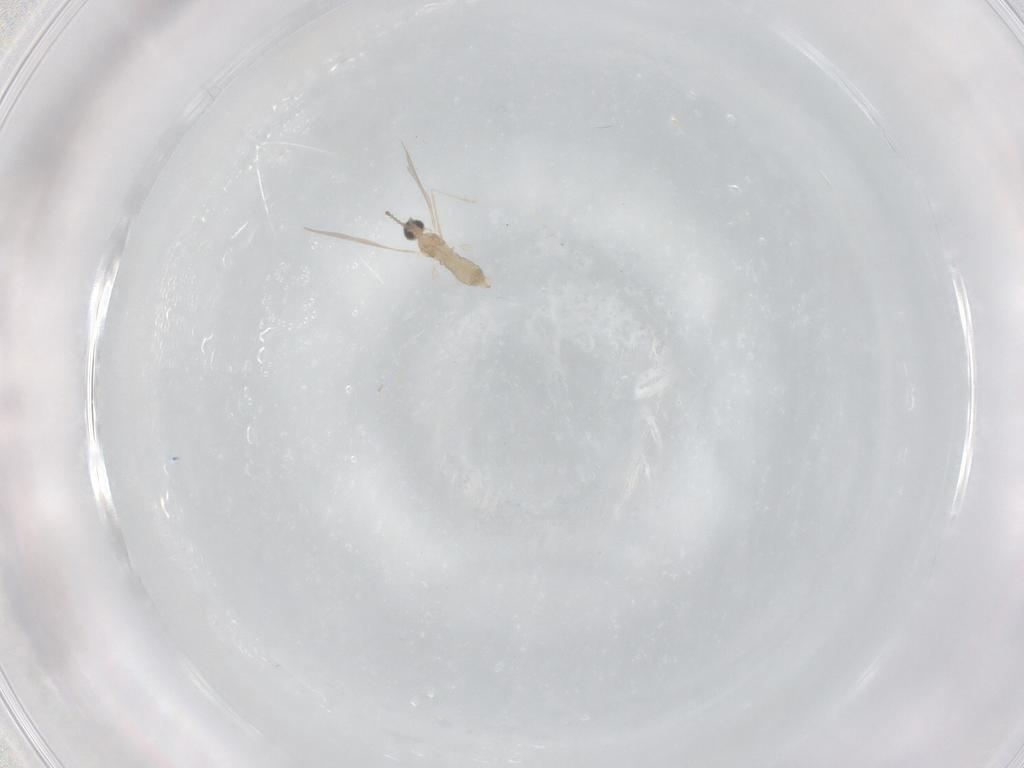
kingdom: Animalia
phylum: Arthropoda
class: Insecta
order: Diptera
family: Cecidomyiidae
